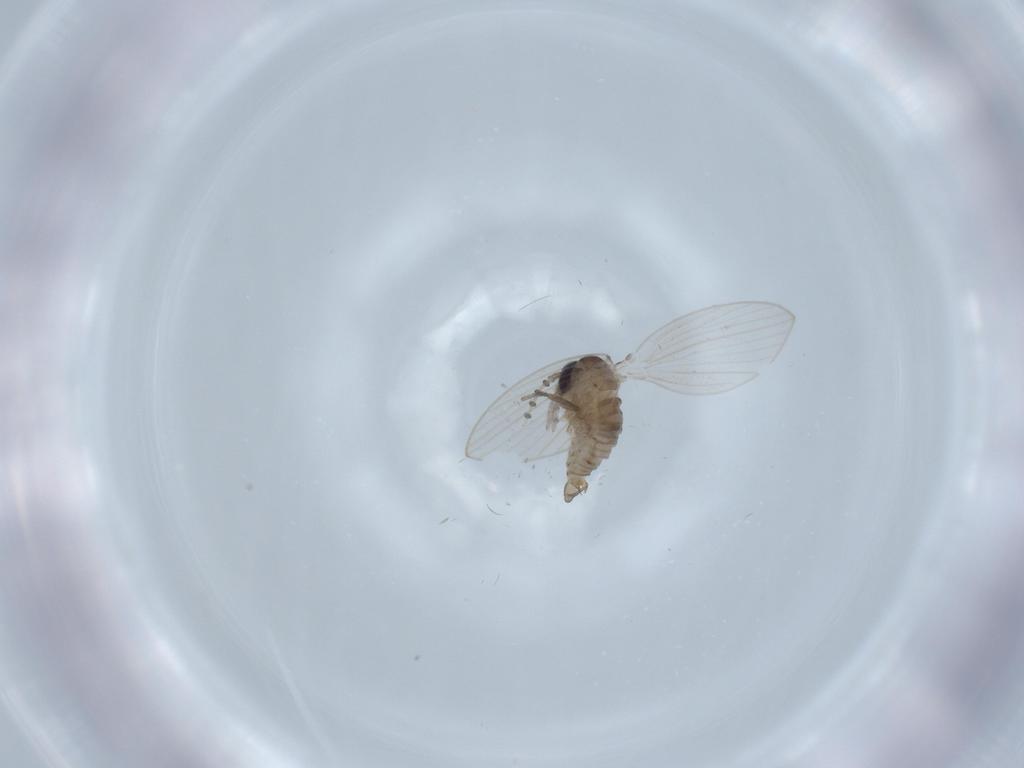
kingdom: Animalia
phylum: Arthropoda
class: Insecta
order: Diptera
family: Psychodidae
